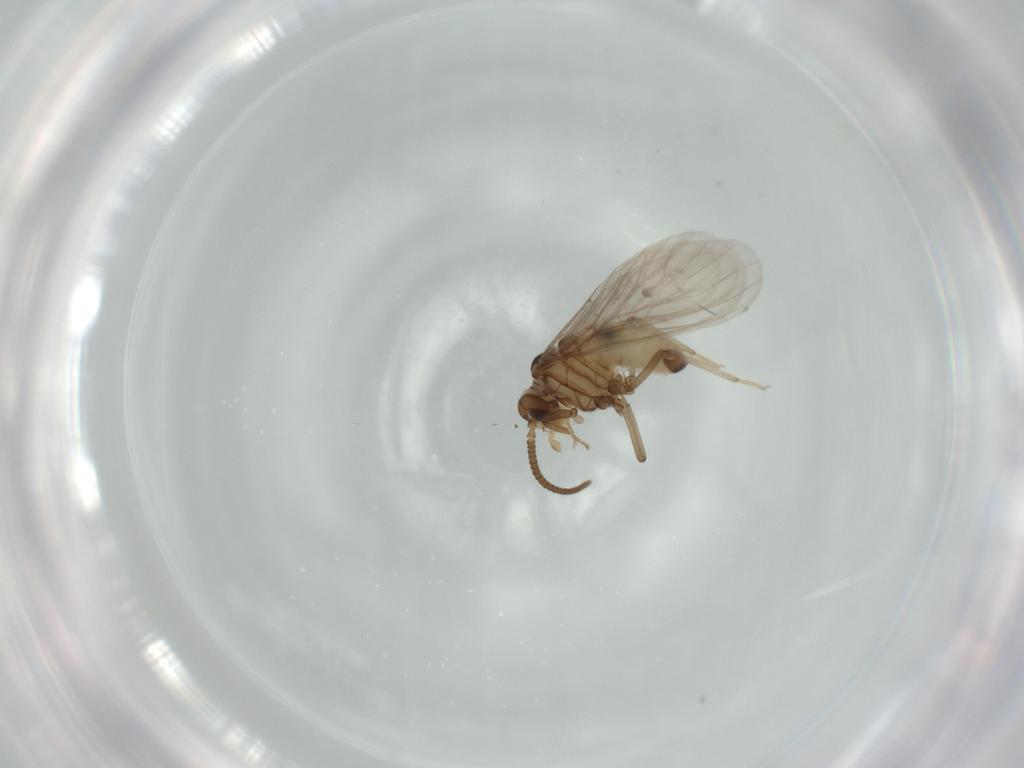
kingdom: Animalia
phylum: Arthropoda
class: Insecta
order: Neuroptera
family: Coniopterygidae
